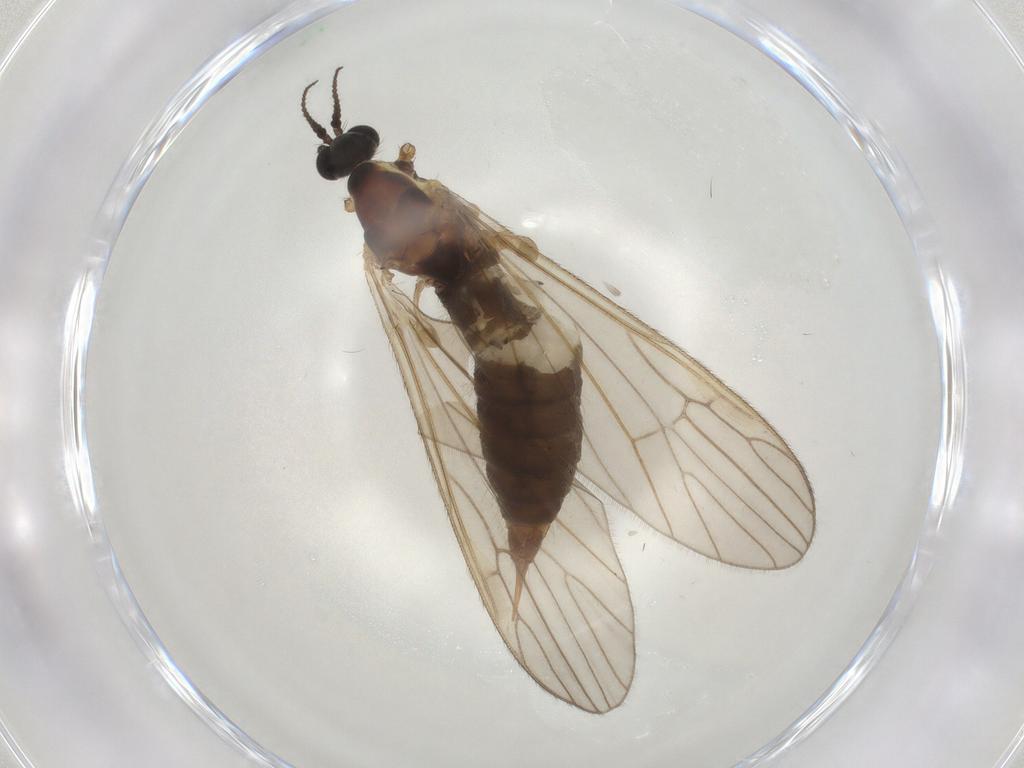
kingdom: Animalia
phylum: Arthropoda
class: Insecta
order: Diptera
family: Agromyzidae
